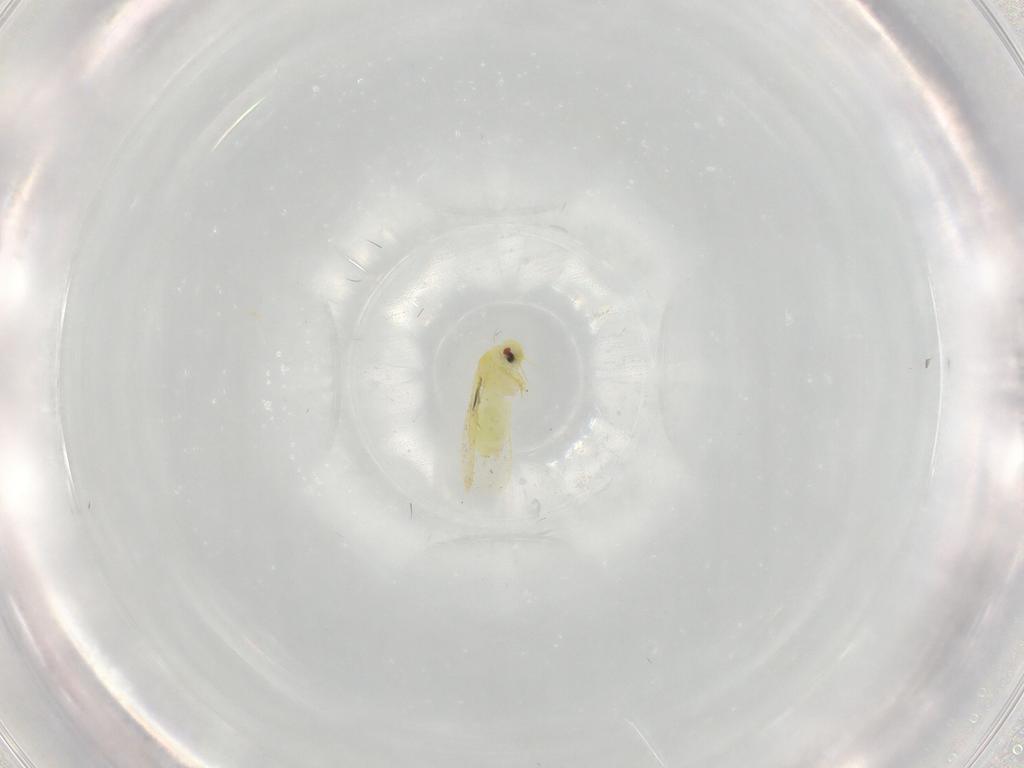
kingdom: Animalia
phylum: Arthropoda
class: Insecta
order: Hemiptera
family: Aleyrodidae
